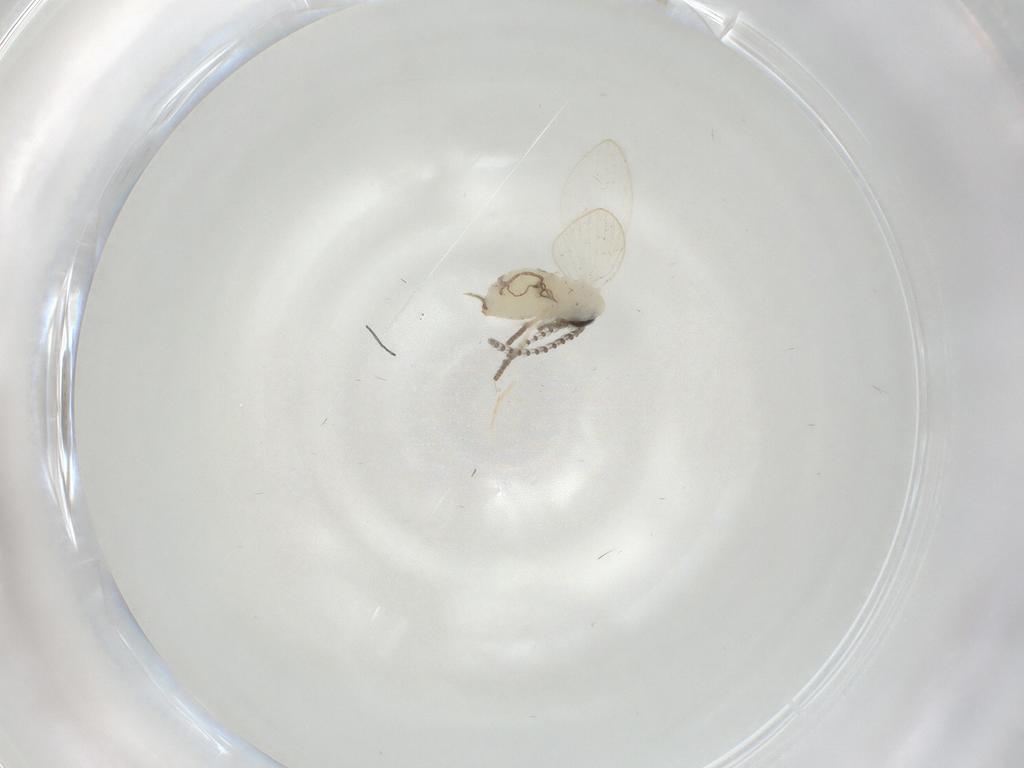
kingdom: Animalia
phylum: Arthropoda
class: Insecta
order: Diptera
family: Psychodidae
